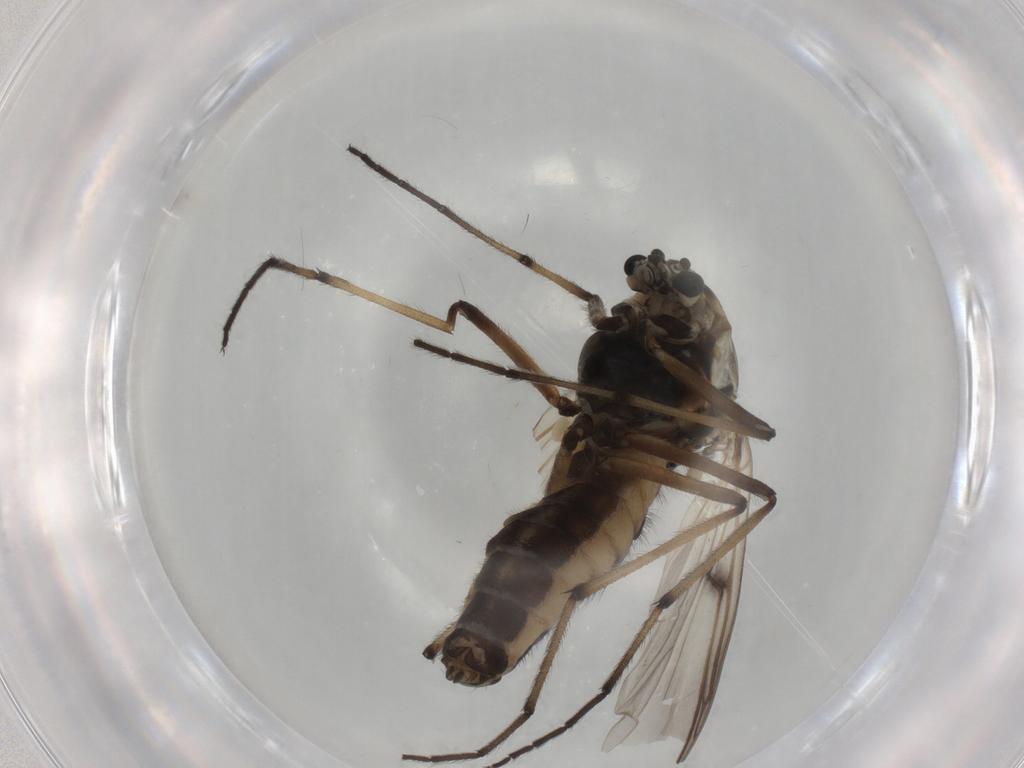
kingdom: Animalia
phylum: Arthropoda
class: Insecta
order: Diptera
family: Chironomidae
